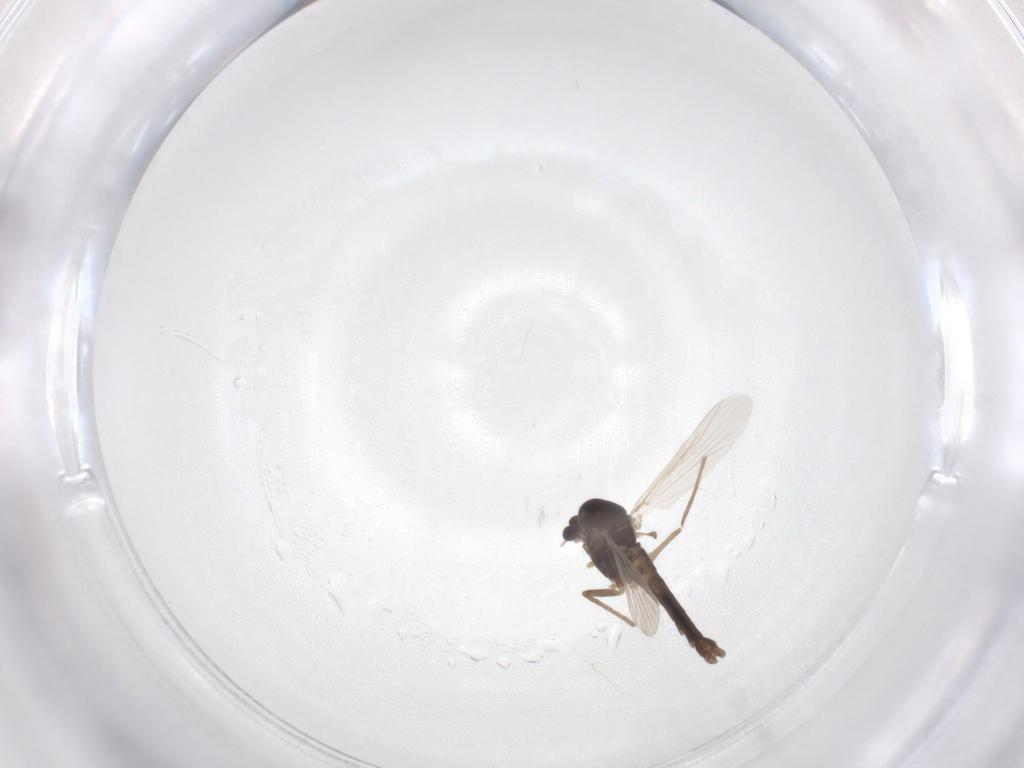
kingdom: Animalia
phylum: Arthropoda
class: Insecta
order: Diptera
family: Chironomidae
